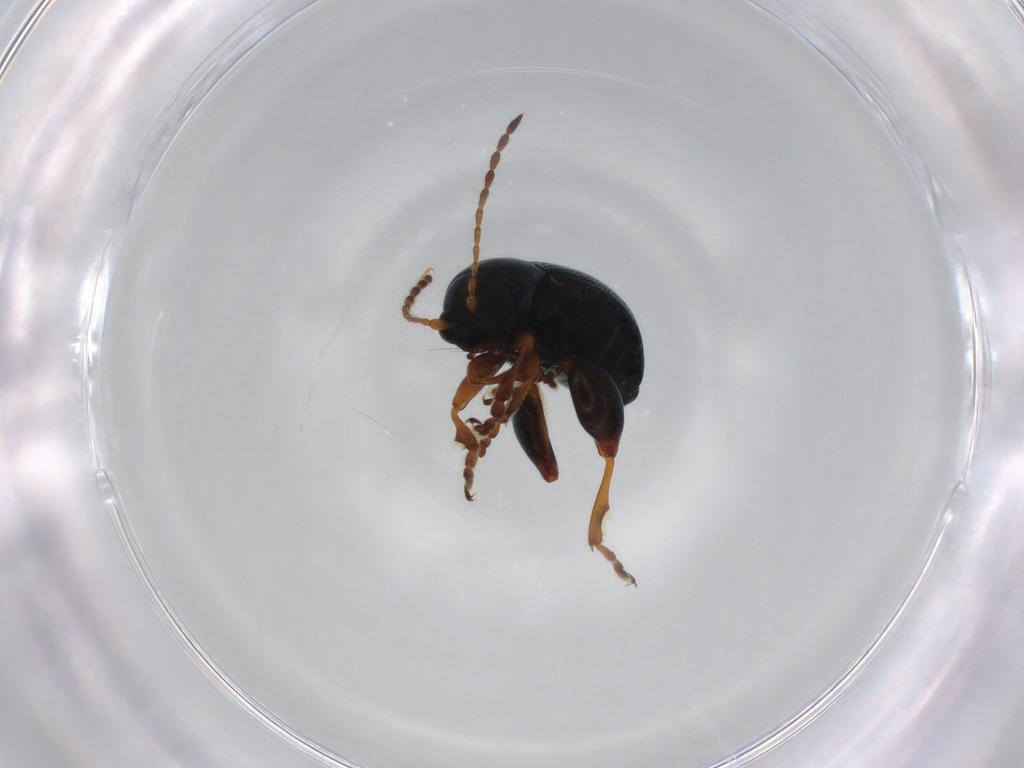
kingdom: Animalia
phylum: Arthropoda
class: Insecta
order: Coleoptera
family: Chrysomelidae
